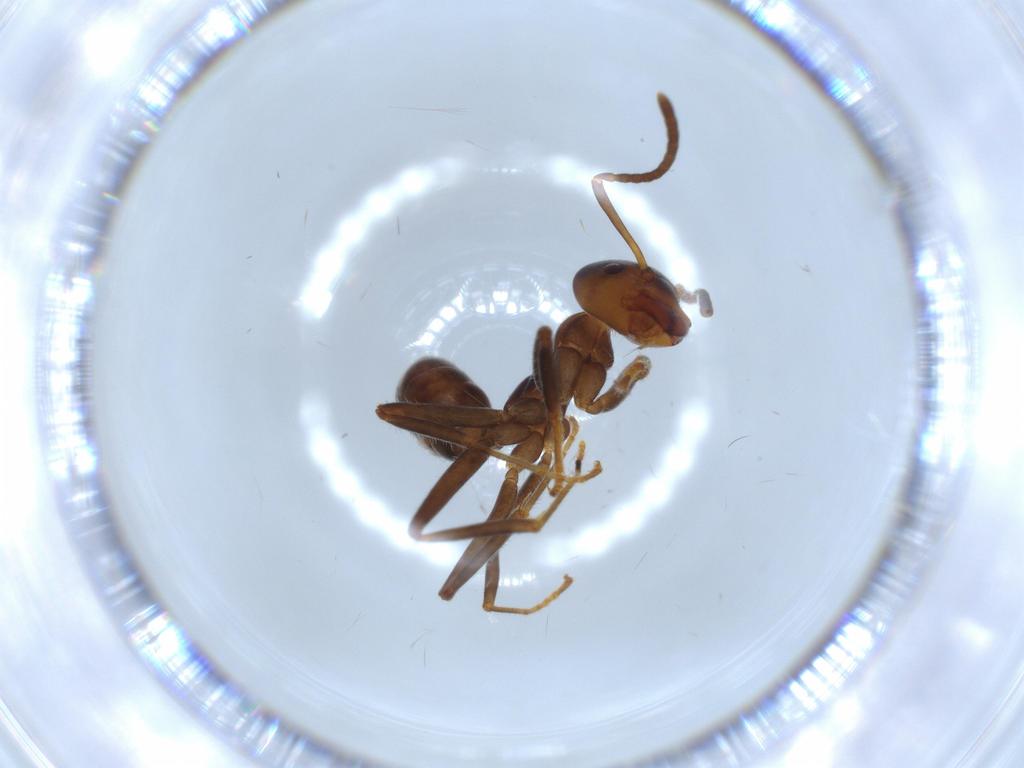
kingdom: Animalia
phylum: Arthropoda
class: Insecta
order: Hymenoptera
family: Formicidae
